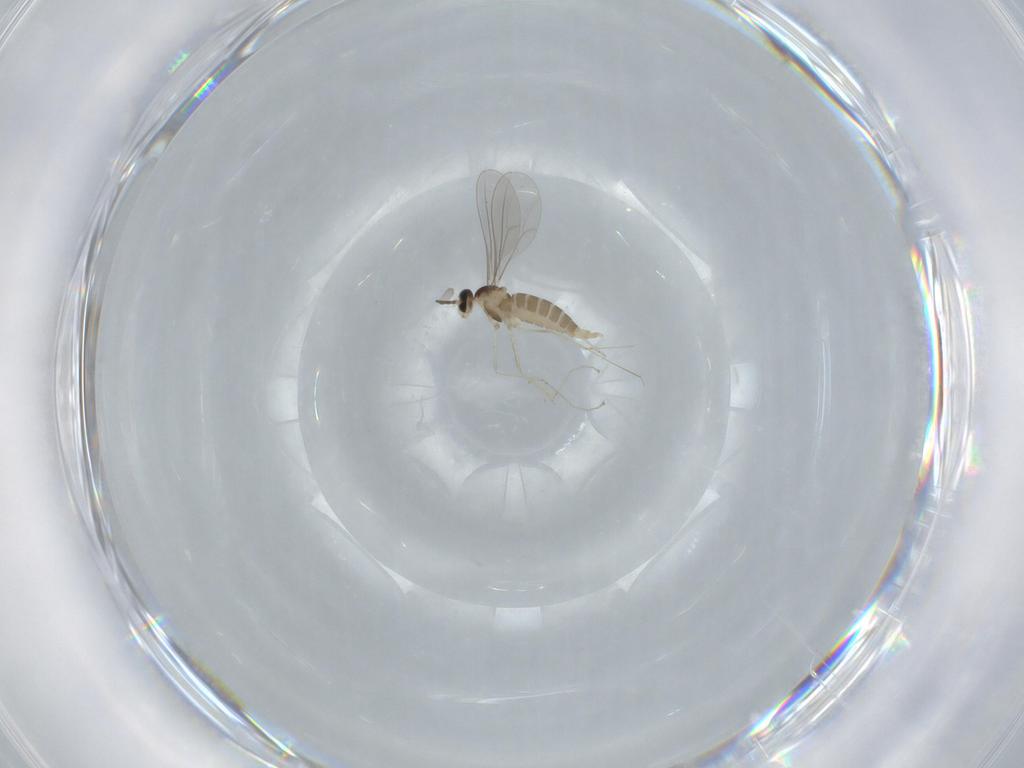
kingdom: Animalia
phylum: Arthropoda
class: Insecta
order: Diptera
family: Cecidomyiidae
